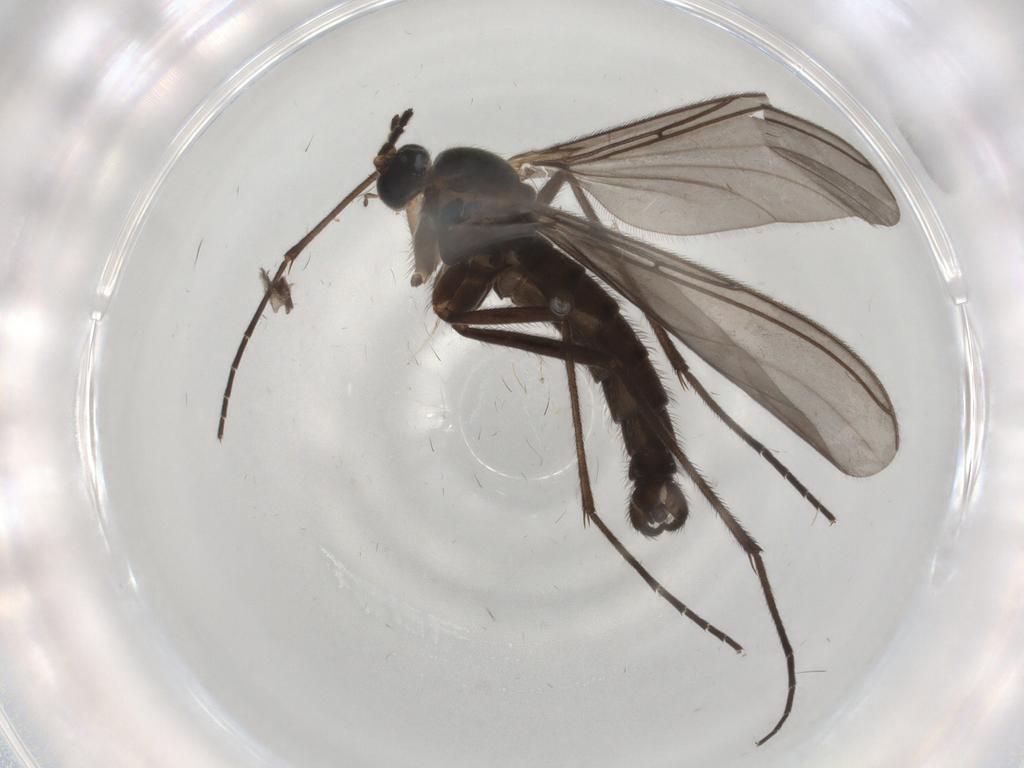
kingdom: Animalia
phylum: Arthropoda
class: Insecta
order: Diptera
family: Sciaridae
